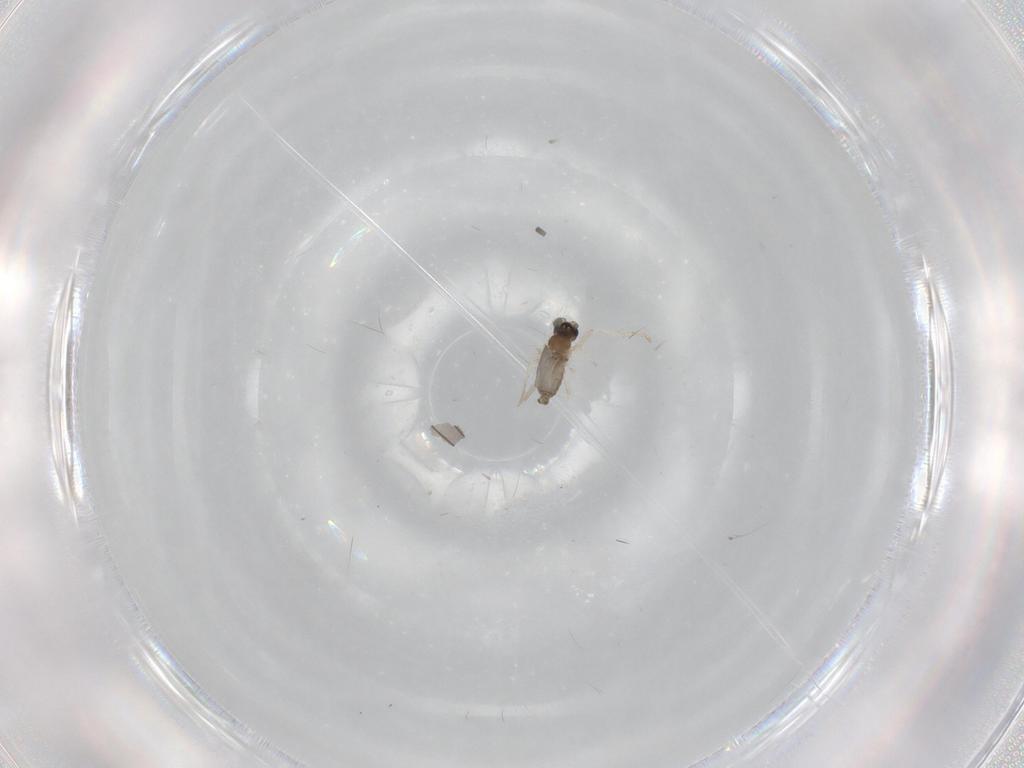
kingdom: Animalia
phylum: Arthropoda
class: Insecta
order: Diptera
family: Cecidomyiidae
